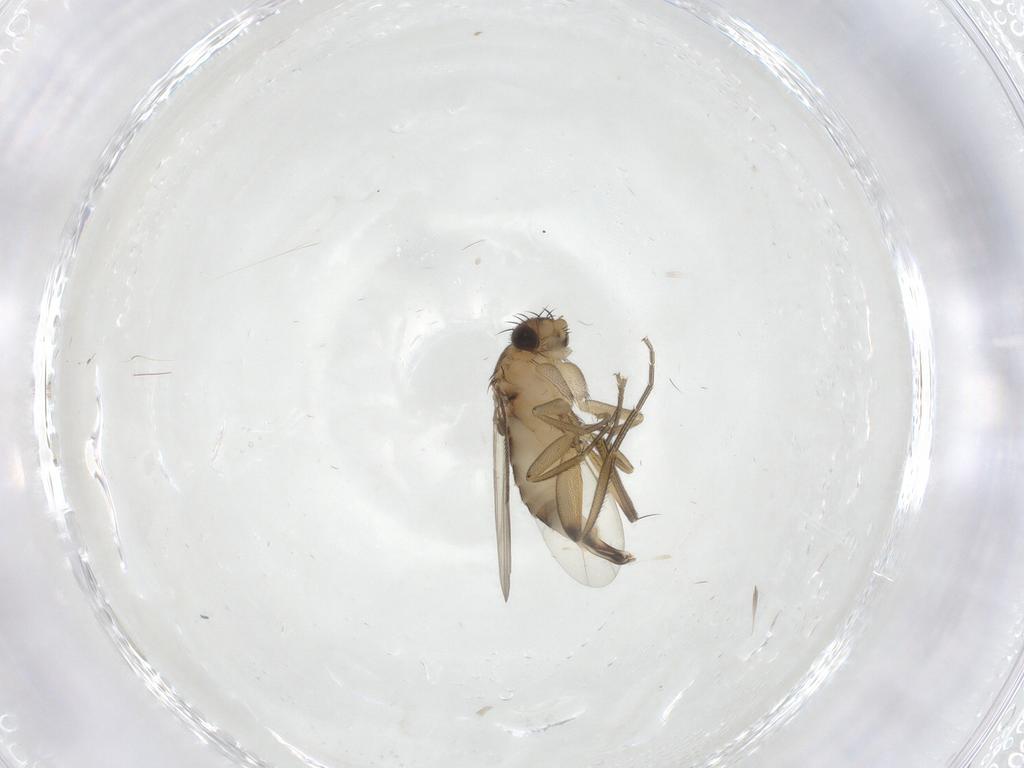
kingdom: Animalia
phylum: Arthropoda
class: Insecta
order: Diptera
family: Phoridae
